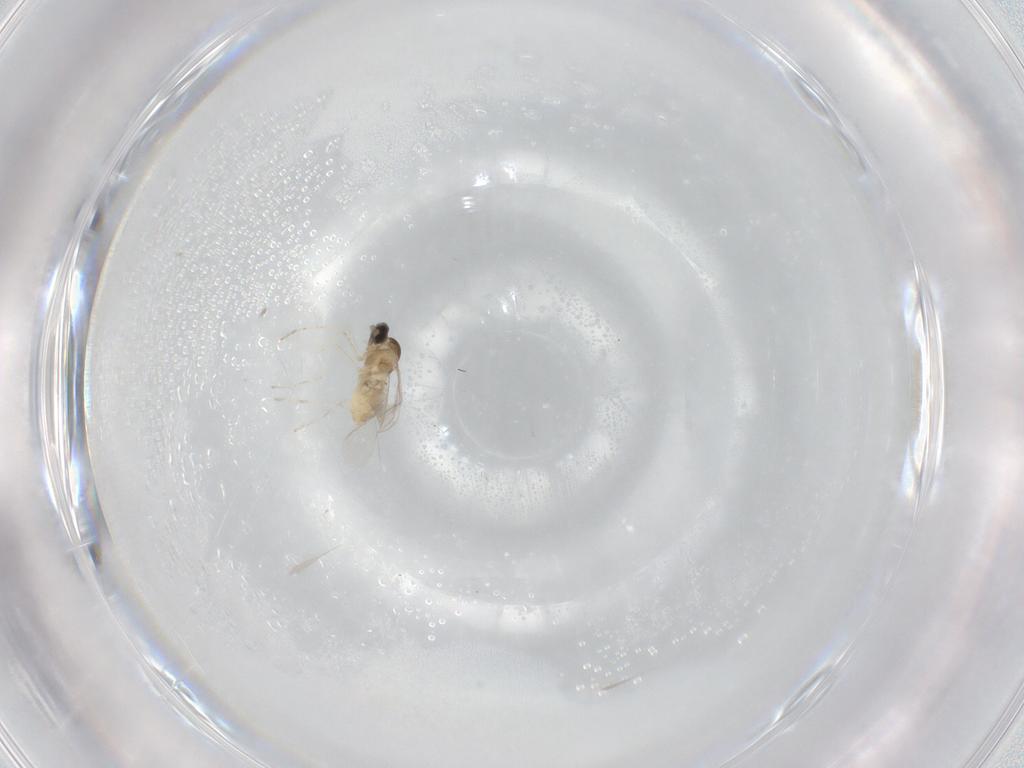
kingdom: Animalia
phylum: Arthropoda
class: Insecta
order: Diptera
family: Cecidomyiidae
